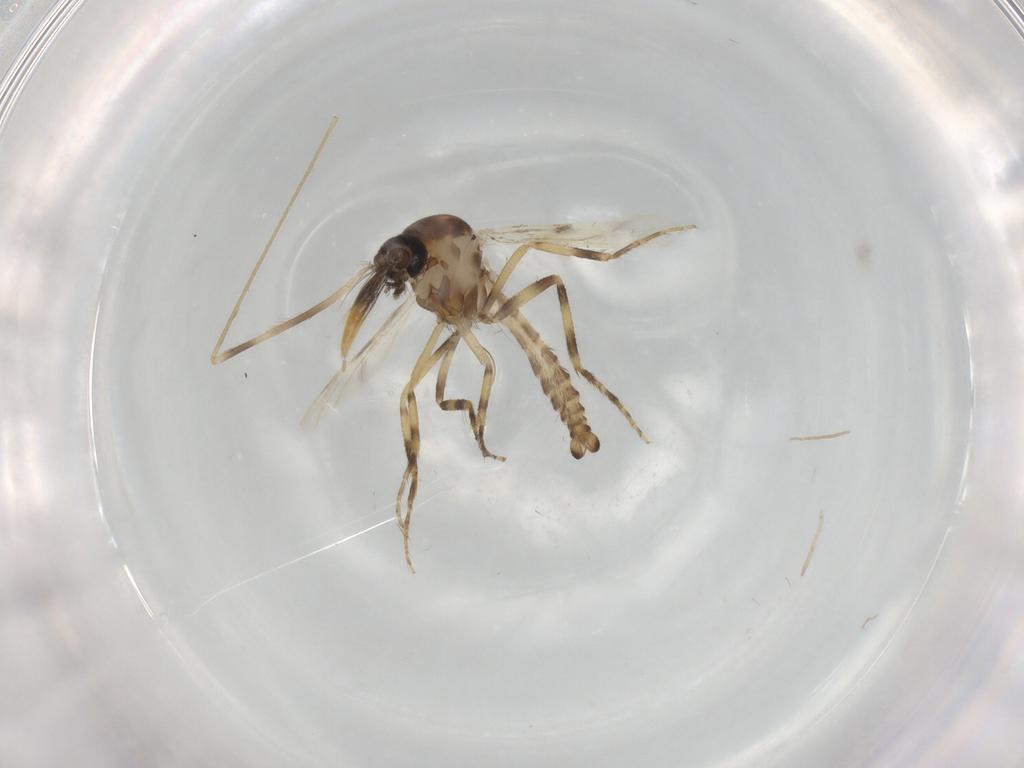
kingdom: Animalia
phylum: Arthropoda
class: Insecta
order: Diptera
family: Ceratopogonidae
